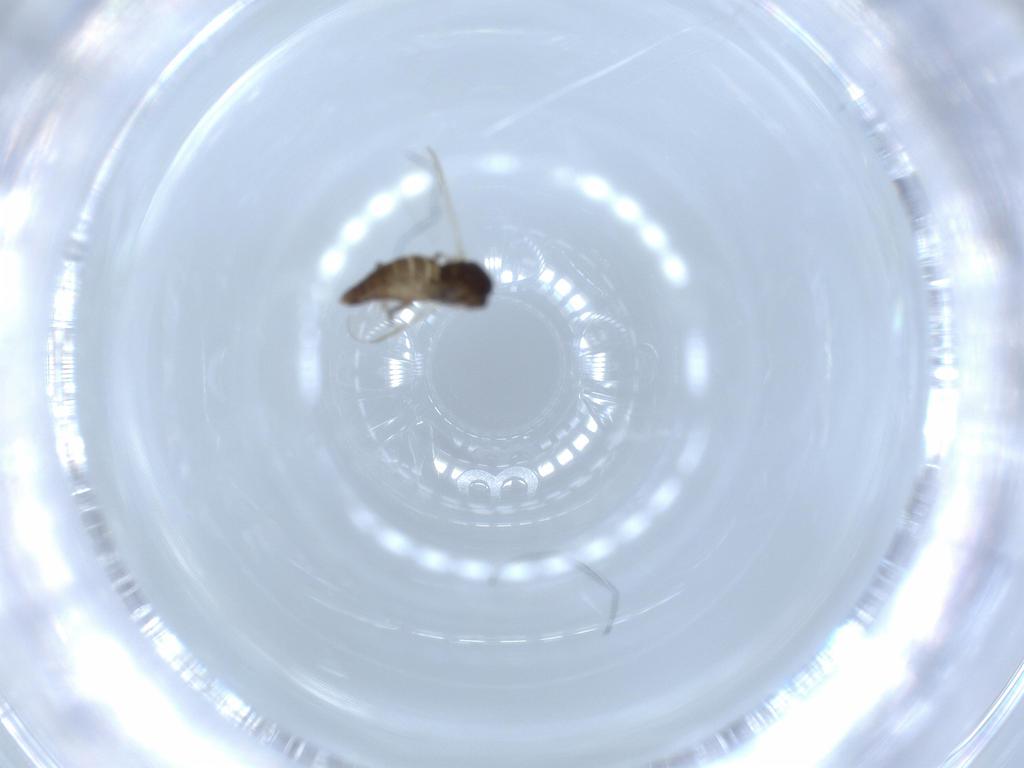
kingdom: Animalia
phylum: Arthropoda
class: Insecta
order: Diptera
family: Chironomidae
